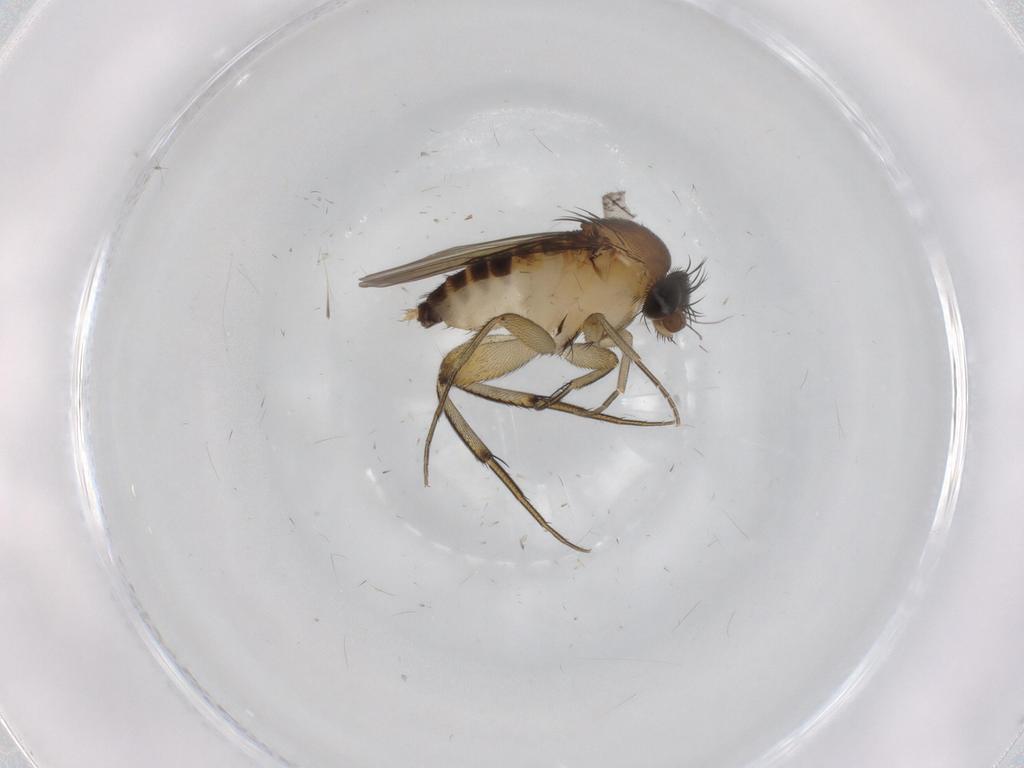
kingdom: Animalia
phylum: Arthropoda
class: Insecta
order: Diptera
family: Phoridae
